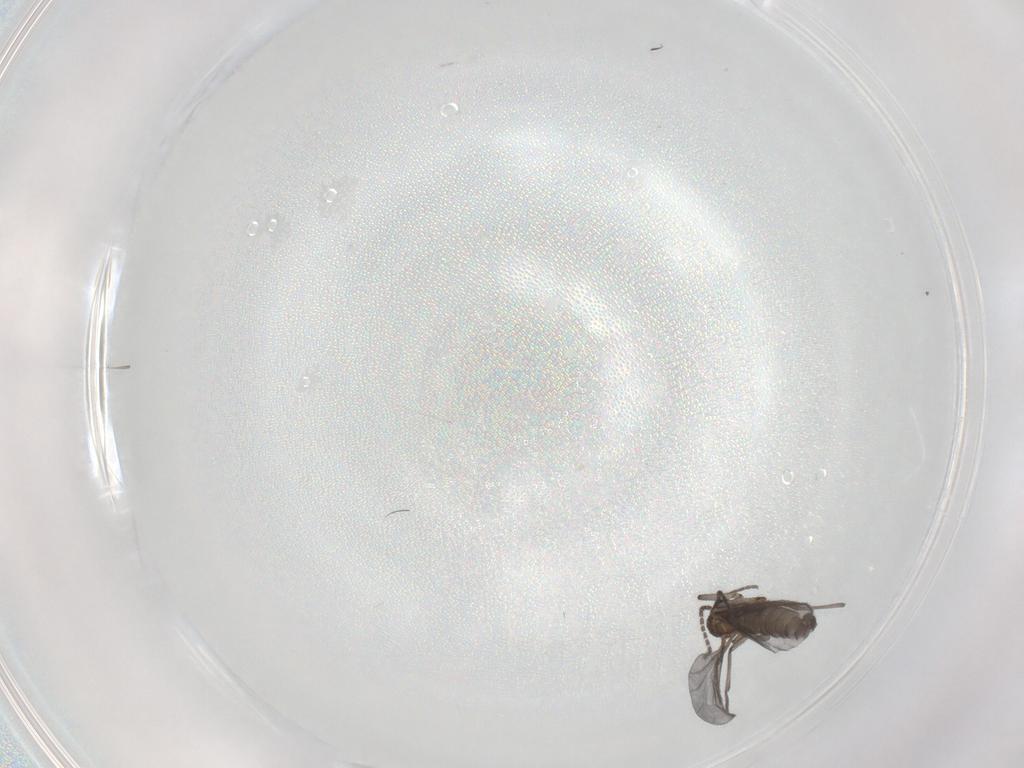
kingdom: Animalia
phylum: Arthropoda
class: Insecta
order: Diptera
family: Sciaridae
